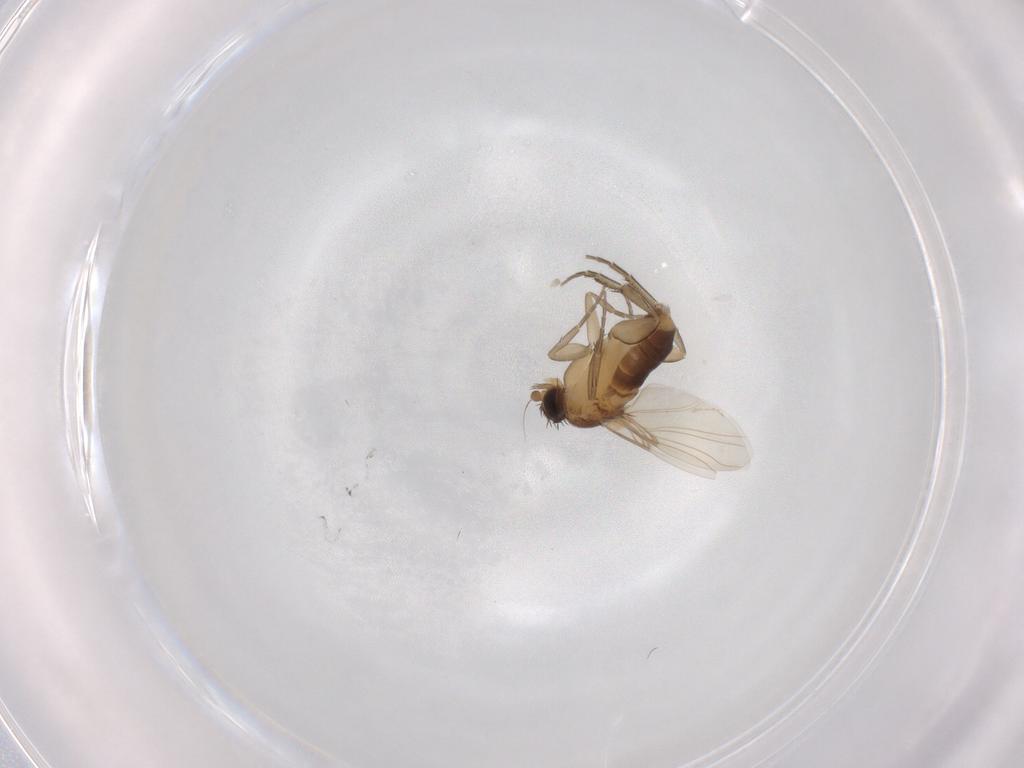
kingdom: Animalia
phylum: Arthropoda
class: Insecta
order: Diptera
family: Phoridae
